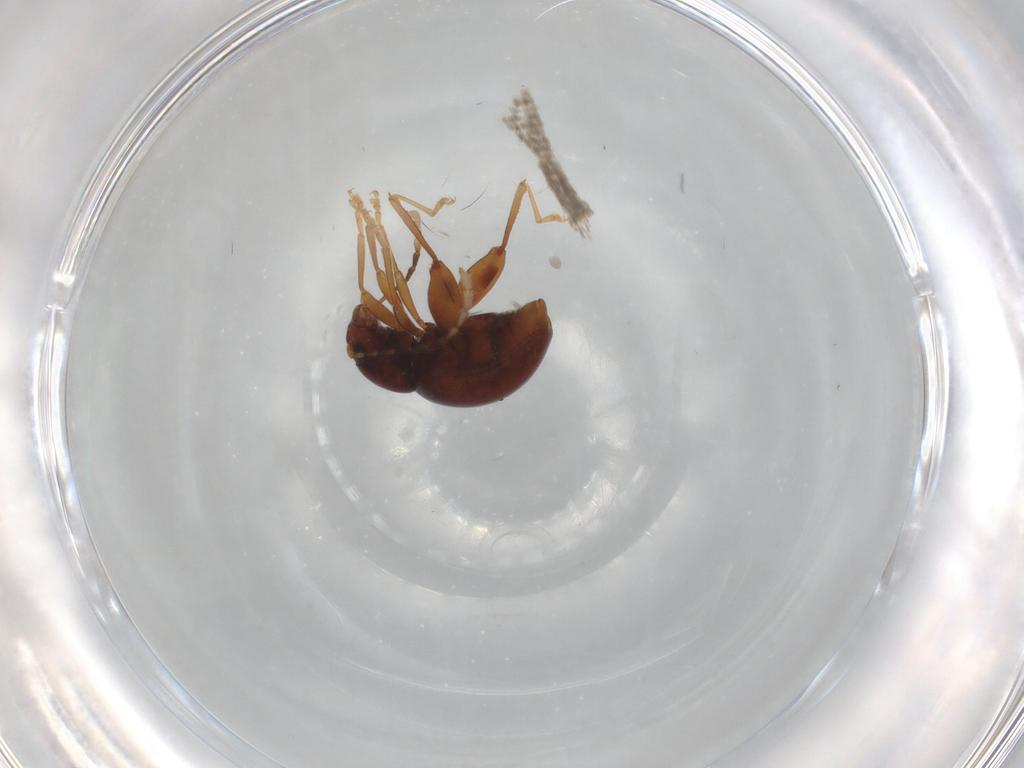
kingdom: Animalia
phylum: Arthropoda
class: Insecta
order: Coleoptera
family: Chrysomelidae
